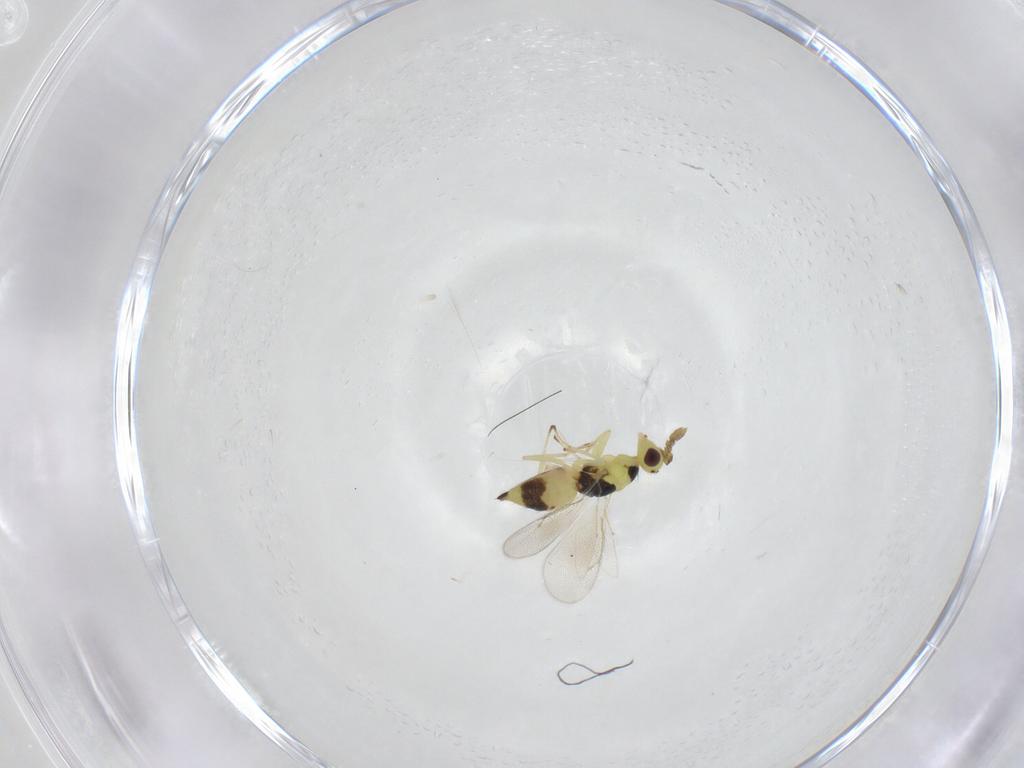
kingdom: Animalia
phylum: Arthropoda
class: Insecta
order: Hymenoptera
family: Eulophidae
